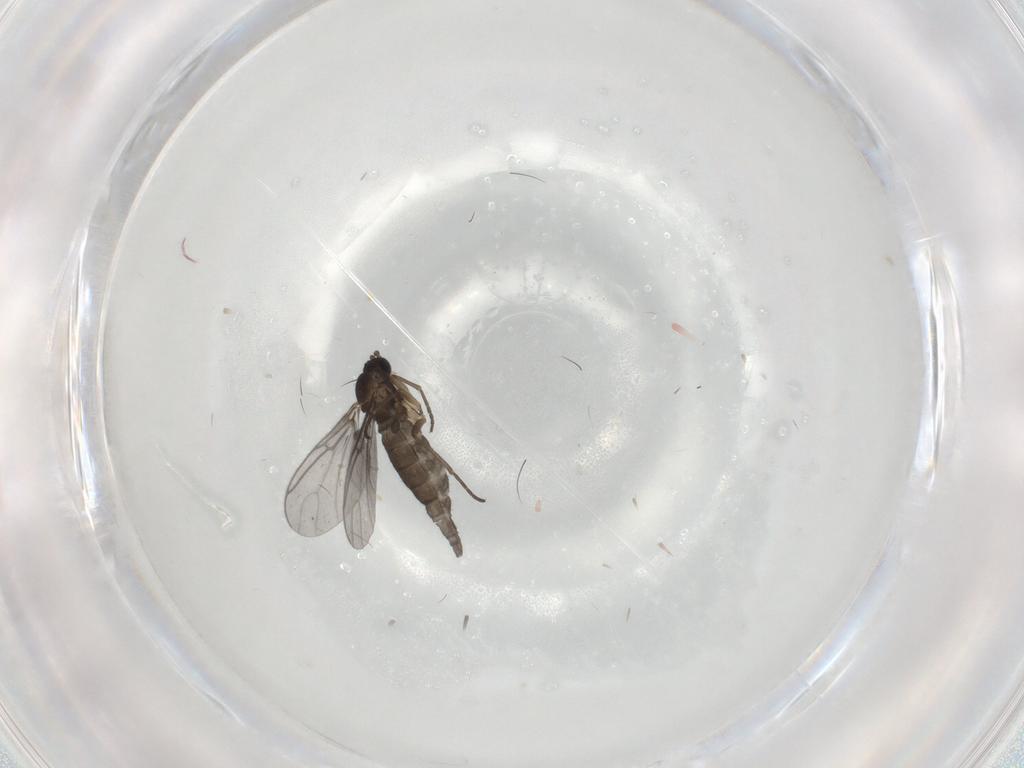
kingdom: Animalia
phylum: Arthropoda
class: Insecta
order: Diptera
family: Sciaridae
